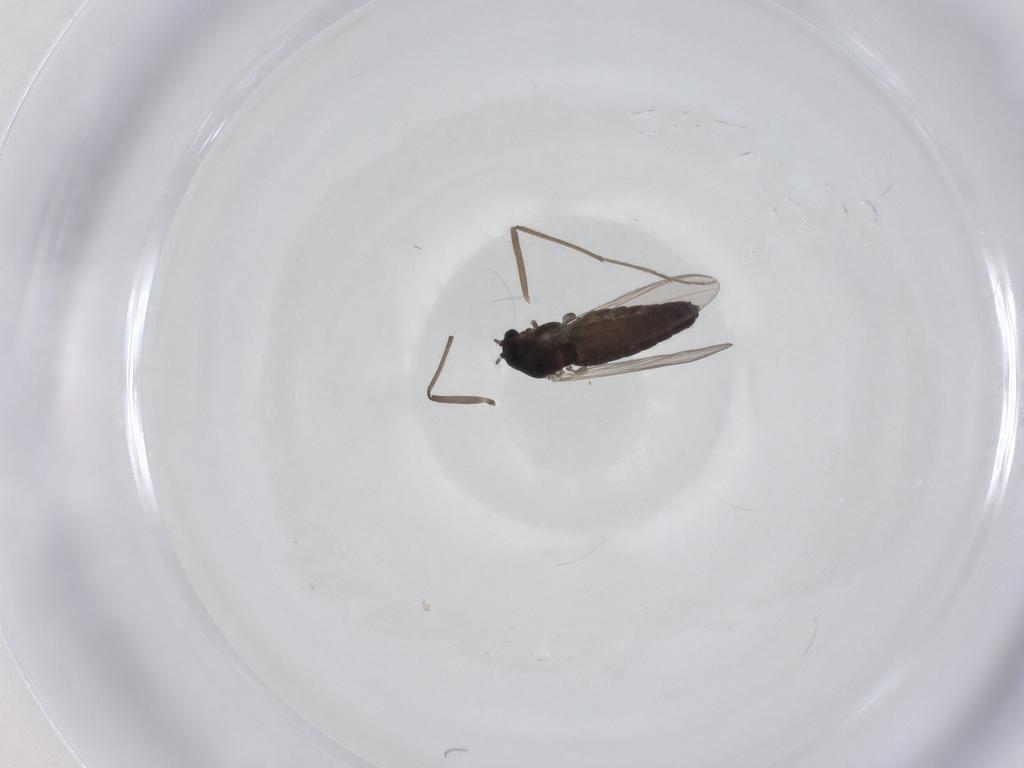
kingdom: Animalia
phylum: Arthropoda
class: Insecta
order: Diptera
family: Chironomidae
